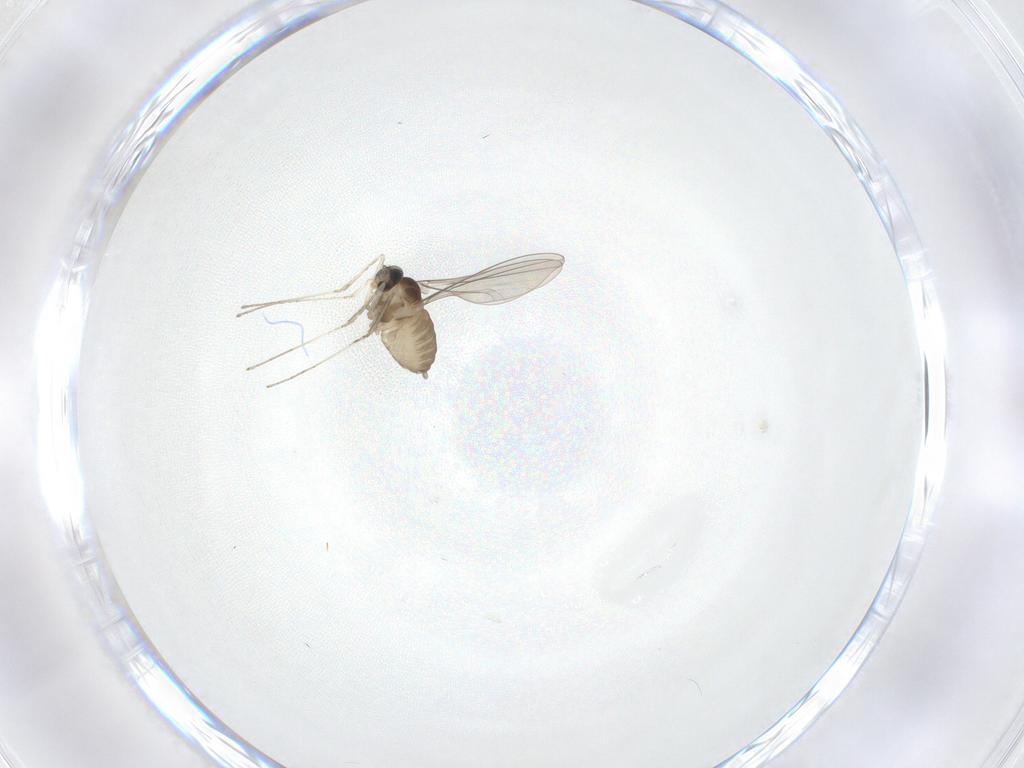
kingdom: Animalia
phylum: Arthropoda
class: Insecta
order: Diptera
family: Cecidomyiidae
